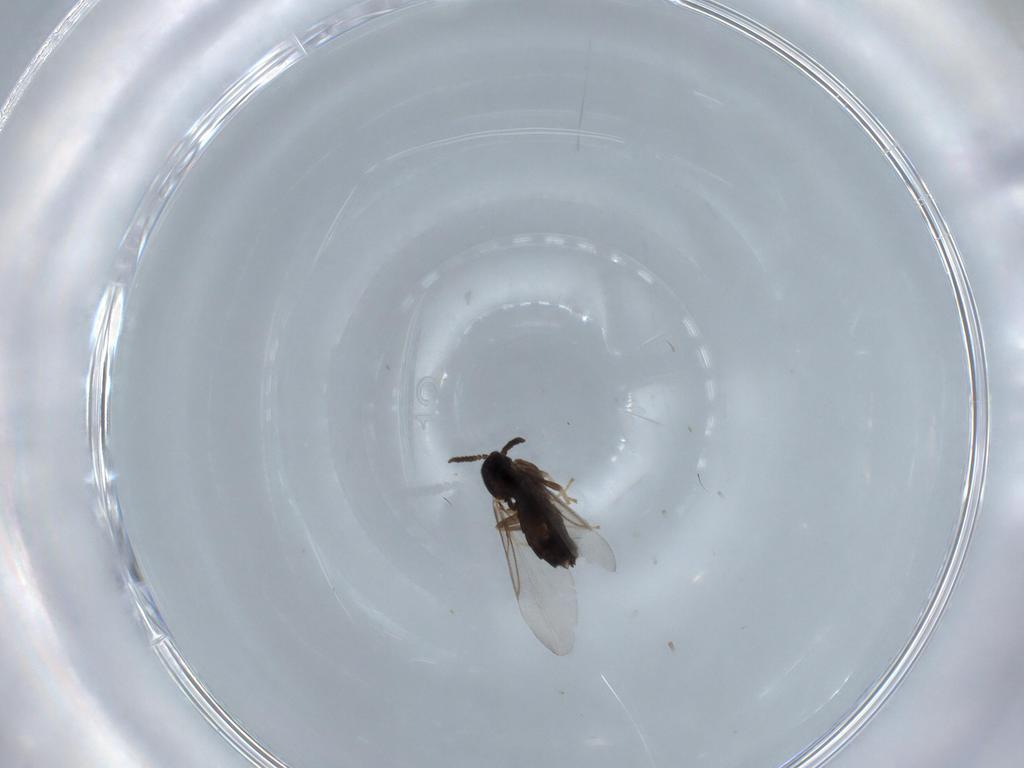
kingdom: Animalia
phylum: Arthropoda
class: Insecta
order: Diptera
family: Hybotidae
